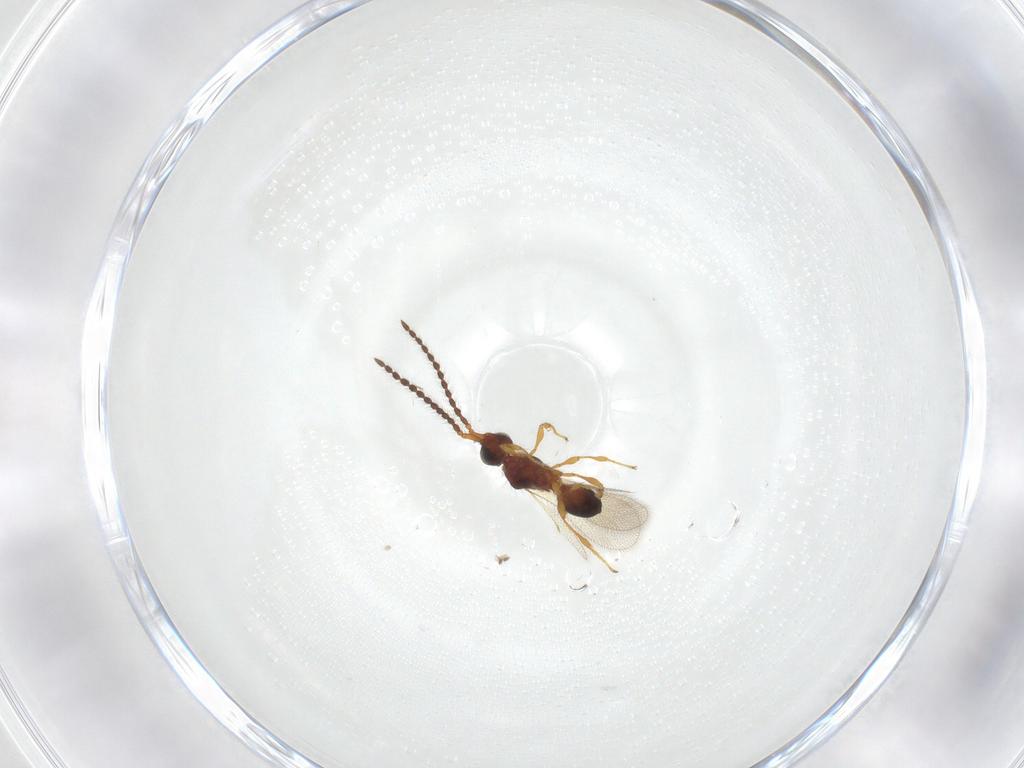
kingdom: Animalia
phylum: Arthropoda
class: Insecta
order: Hymenoptera
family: Diapriidae
